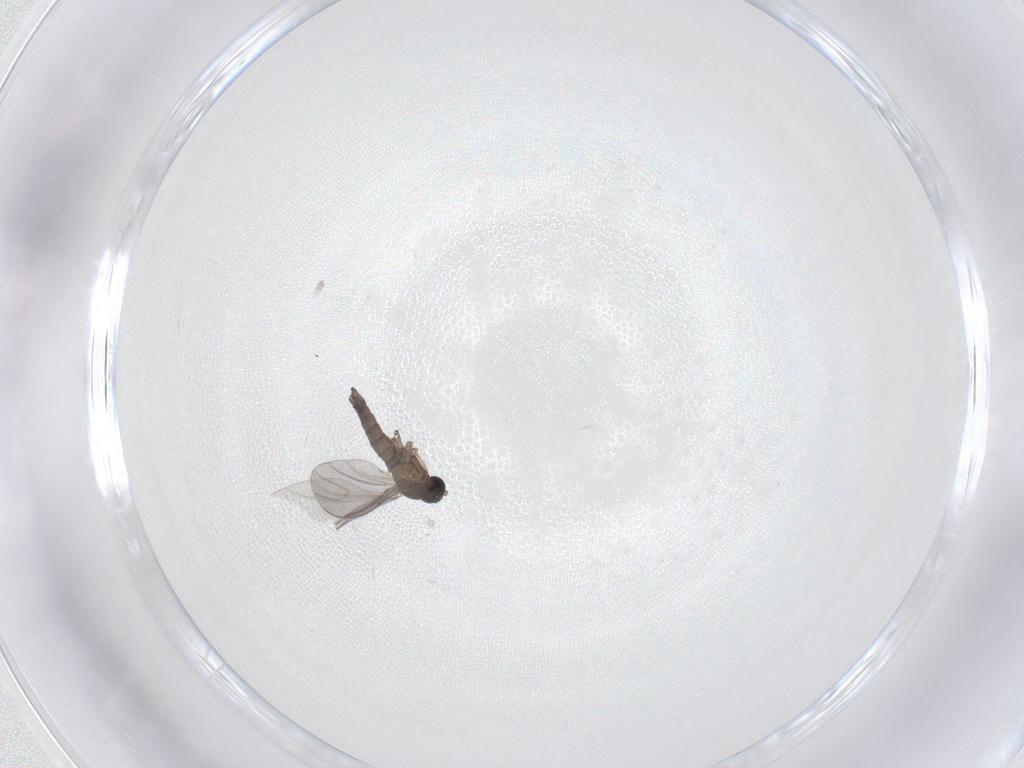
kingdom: Animalia
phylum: Arthropoda
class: Insecta
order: Diptera
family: Sciaridae
